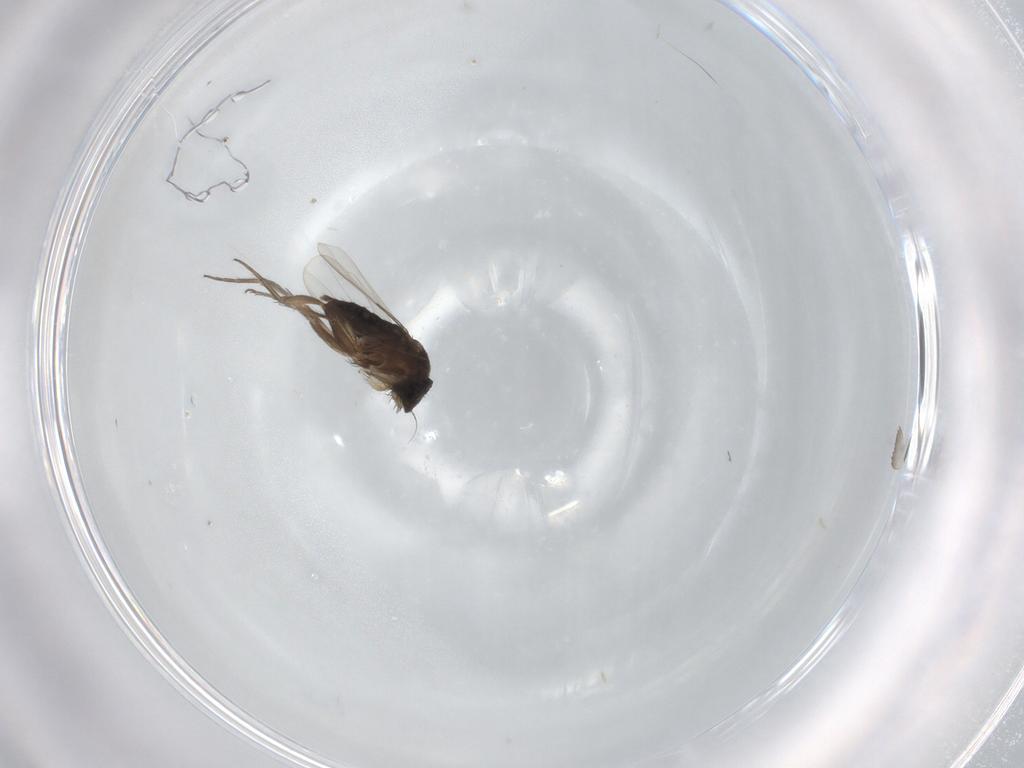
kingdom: Animalia
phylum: Arthropoda
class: Insecta
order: Diptera
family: Phoridae
